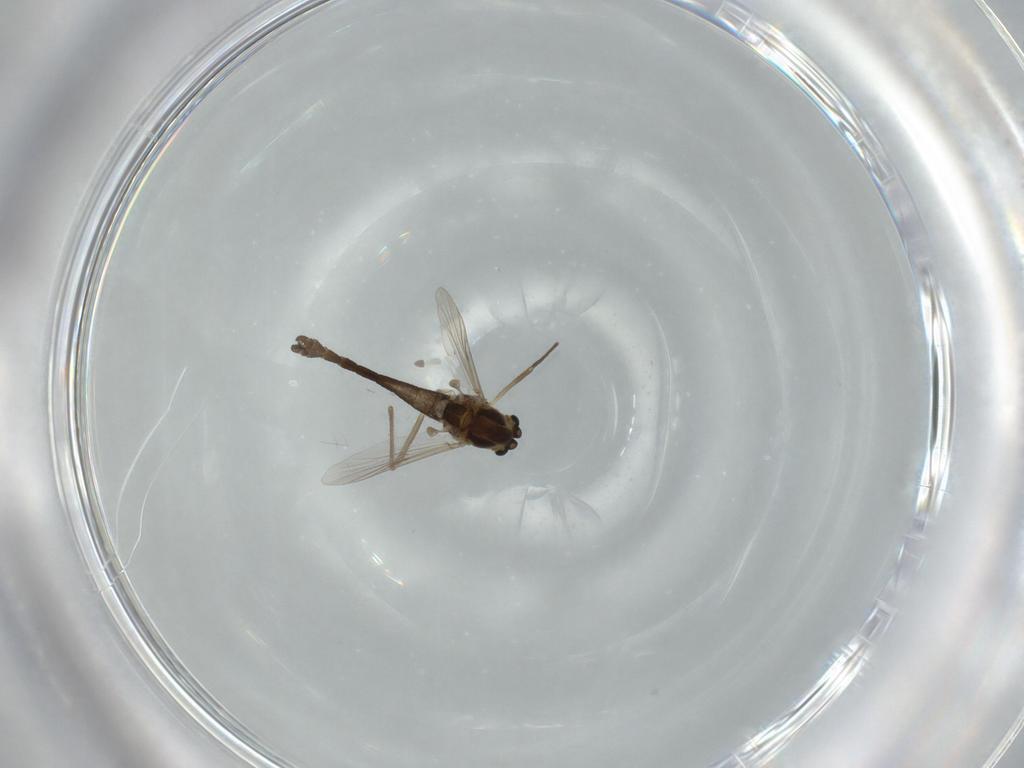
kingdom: Animalia
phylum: Arthropoda
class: Insecta
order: Diptera
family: Chironomidae
